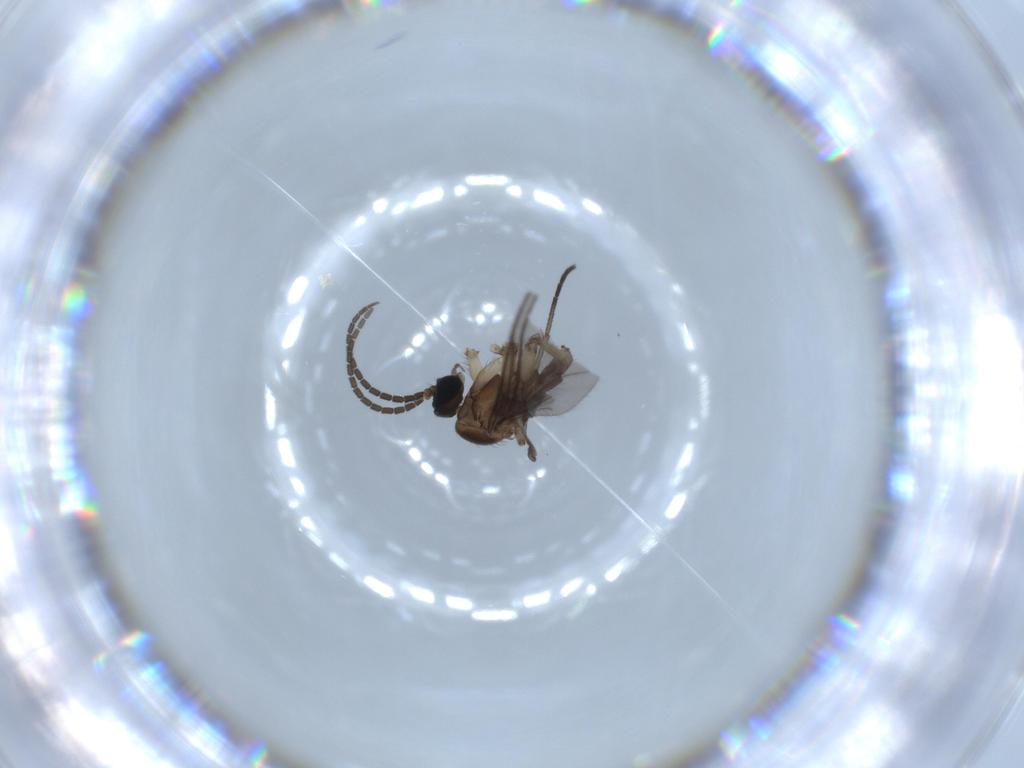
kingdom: Animalia
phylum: Arthropoda
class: Insecta
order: Diptera
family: Sciaridae
